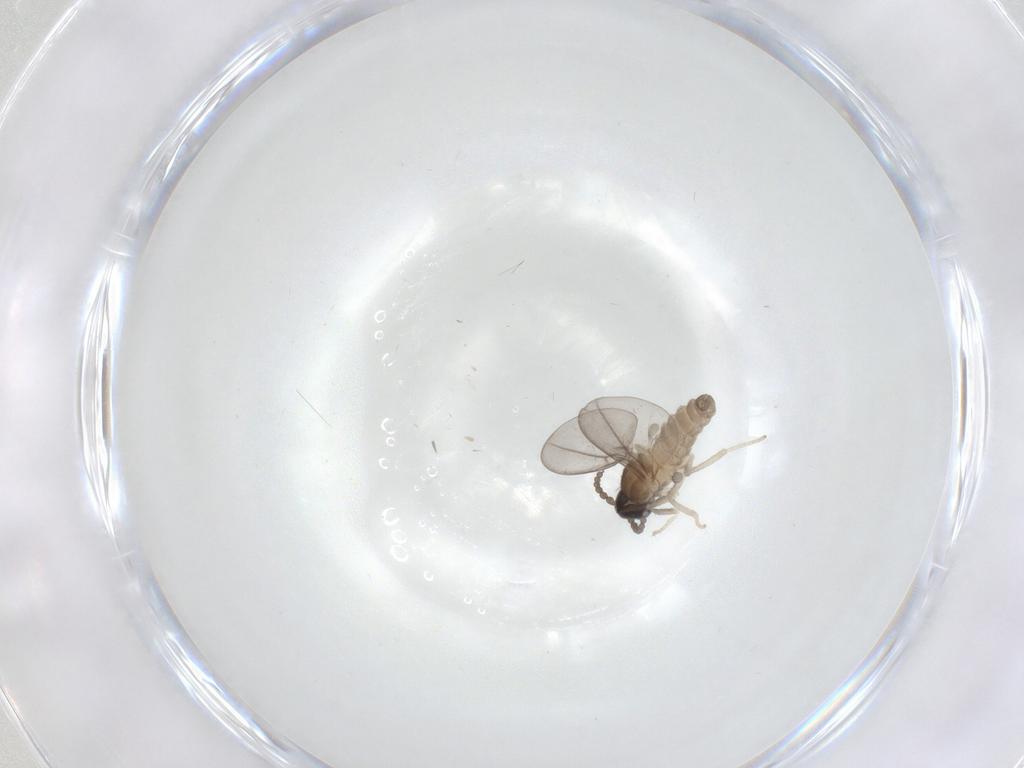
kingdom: Animalia
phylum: Arthropoda
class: Insecta
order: Diptera
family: Cecidomyiidae
